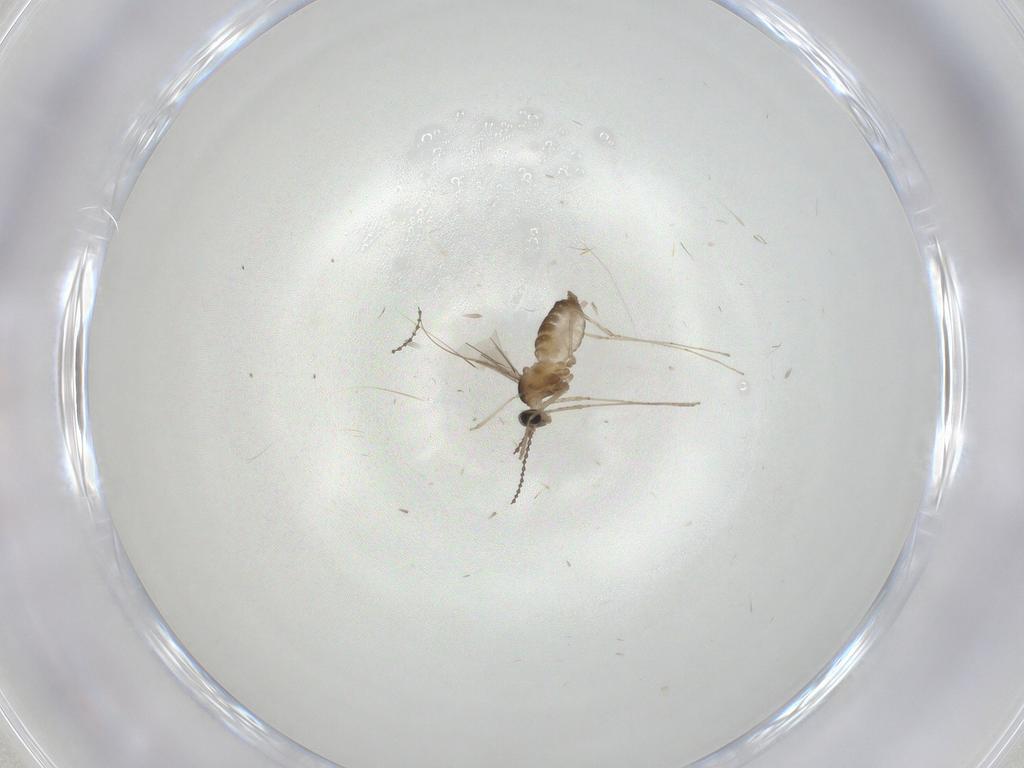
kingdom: Animalia
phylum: Arthropoda
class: Insecta
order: Diptera
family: Cecidomyiidae
